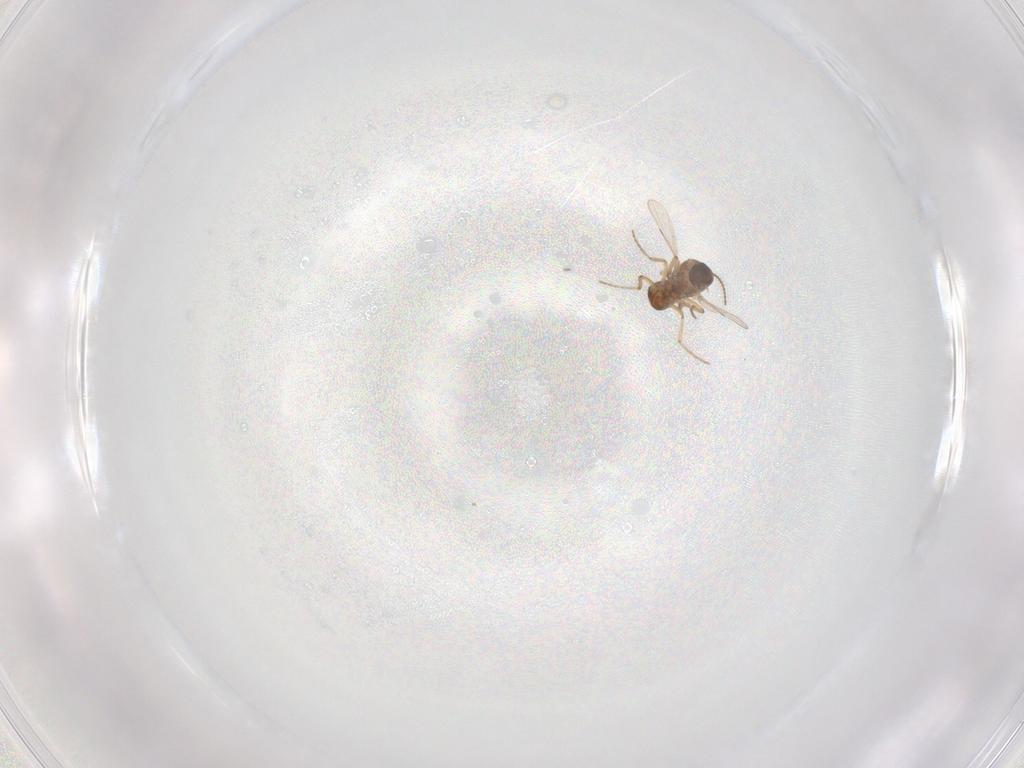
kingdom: Animalia
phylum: Arthropoda
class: Insecta
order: Diptera
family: Ceratopogonidae
